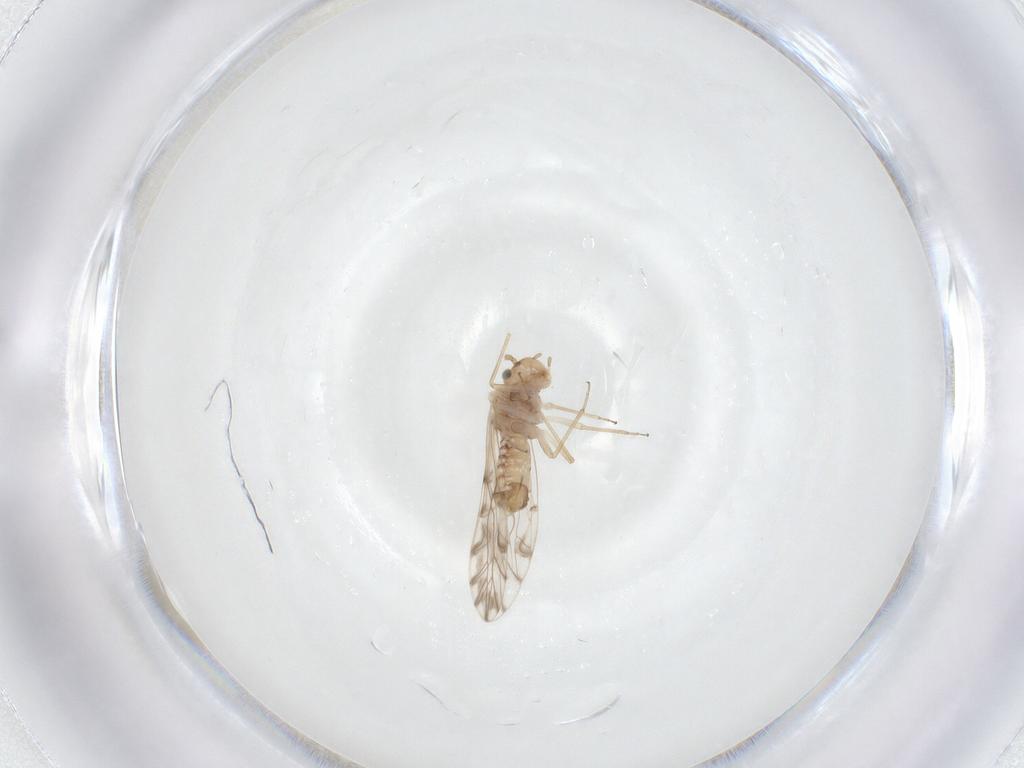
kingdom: Animalia
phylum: Arthropoda
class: Insecta
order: Psocodea
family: Lachesillidae
